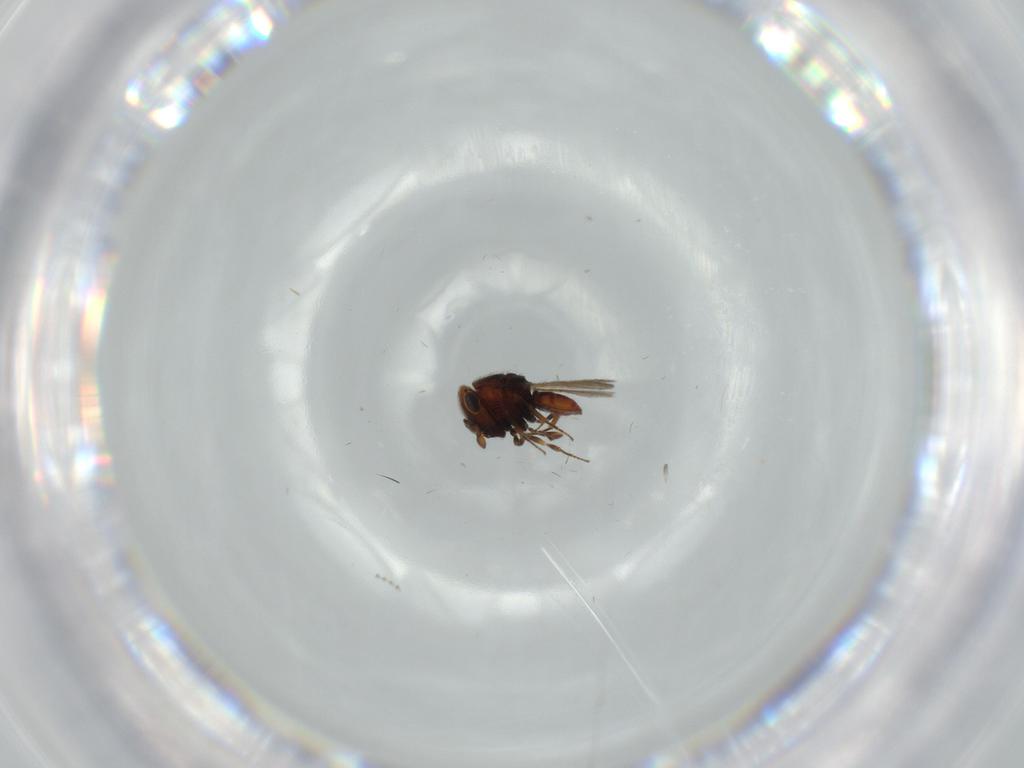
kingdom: Animalia
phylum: Arthropoda
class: Insecta
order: Hymenoptera
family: Scelionidae
